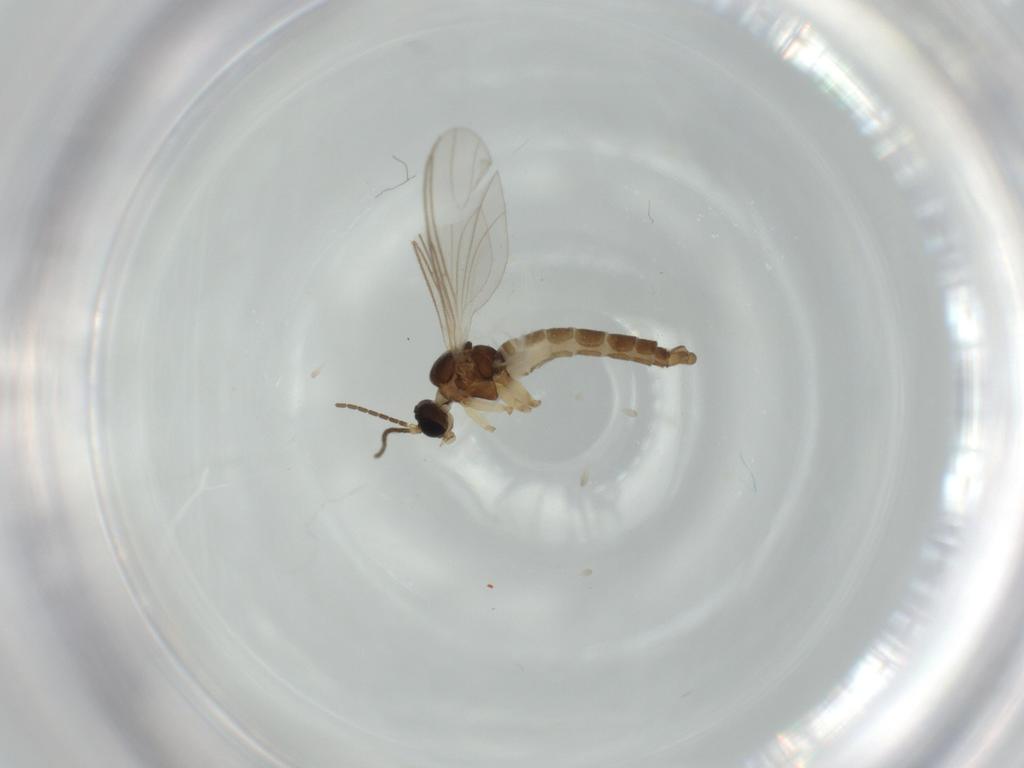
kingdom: Animalia
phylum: Arthropoda
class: Insecta
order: Diptera
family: Sciaridae
